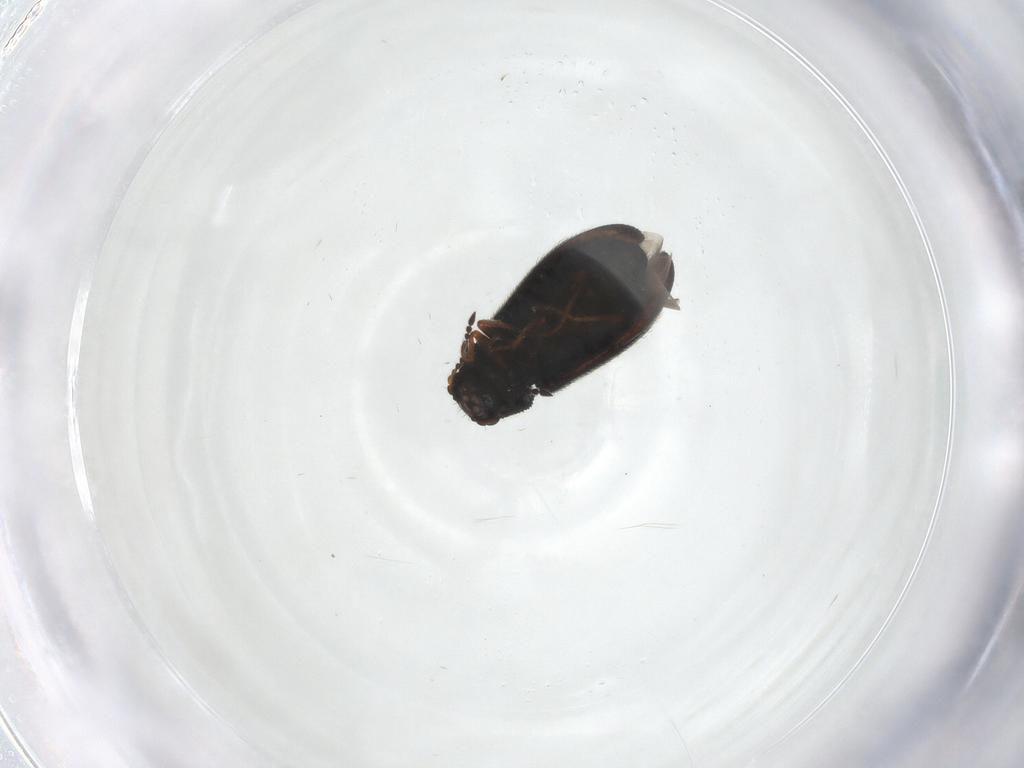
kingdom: Animalia
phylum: Arthropoda
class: Insecta
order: Coleoptera
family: Melyridae
